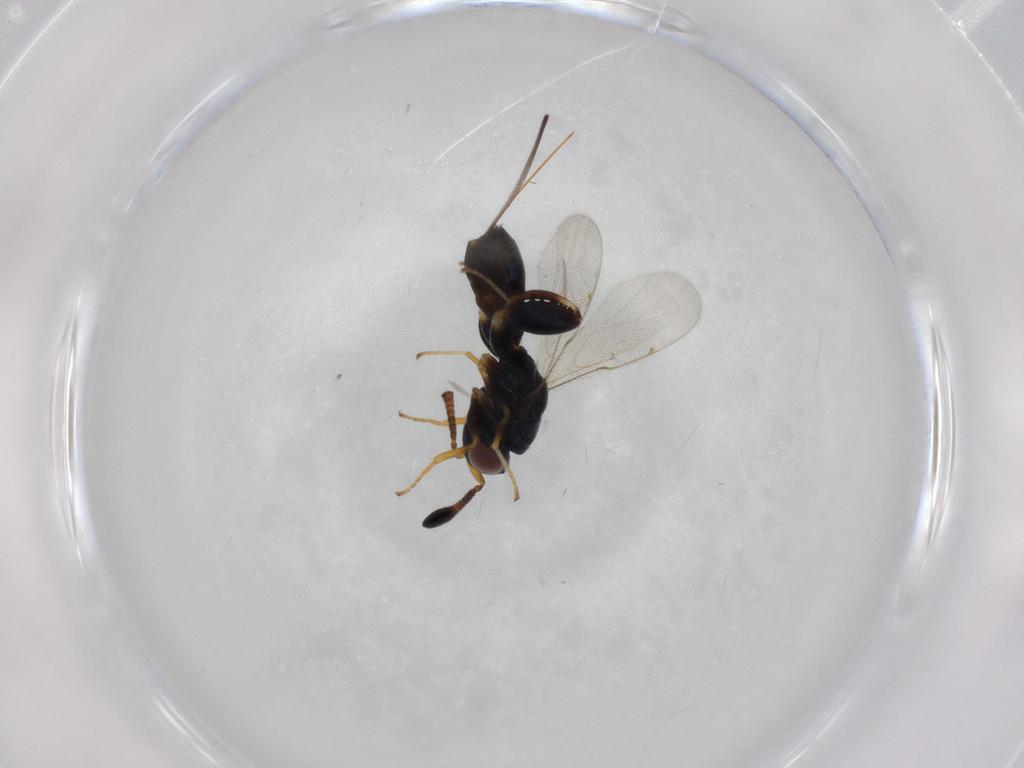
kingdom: Animalia
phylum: Arthropoda
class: Insecta
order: Hymenoptera
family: Torymidae
